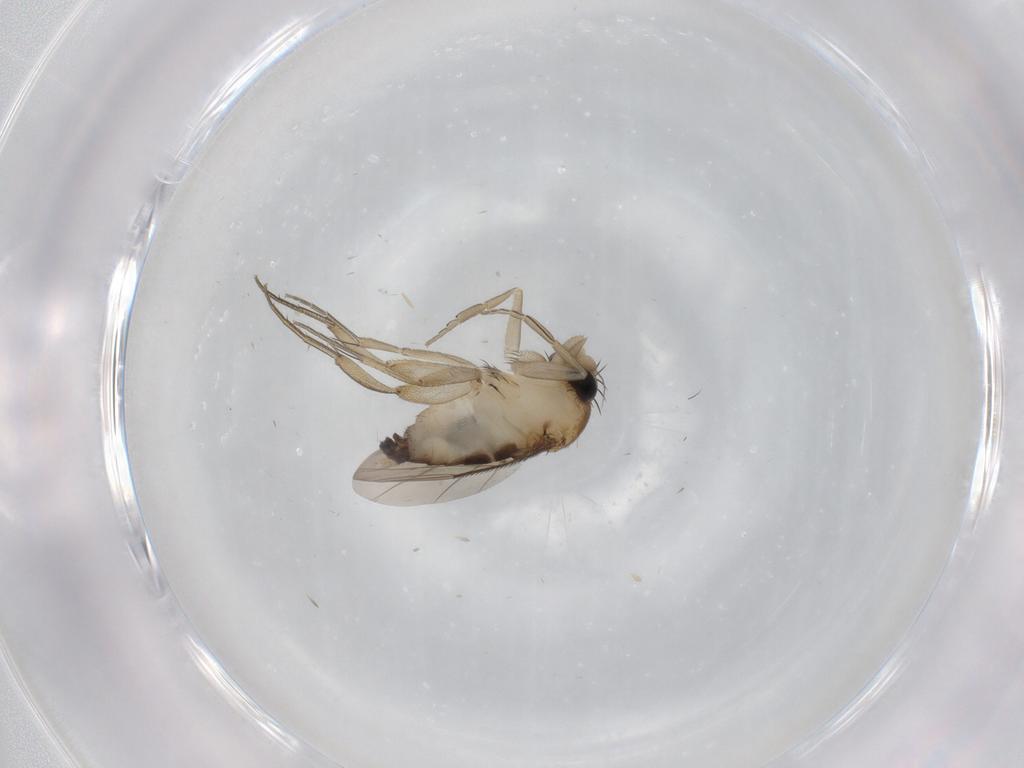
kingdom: Animalia
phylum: Arthropoda
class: Insecta
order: Diptera
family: Phoridae
